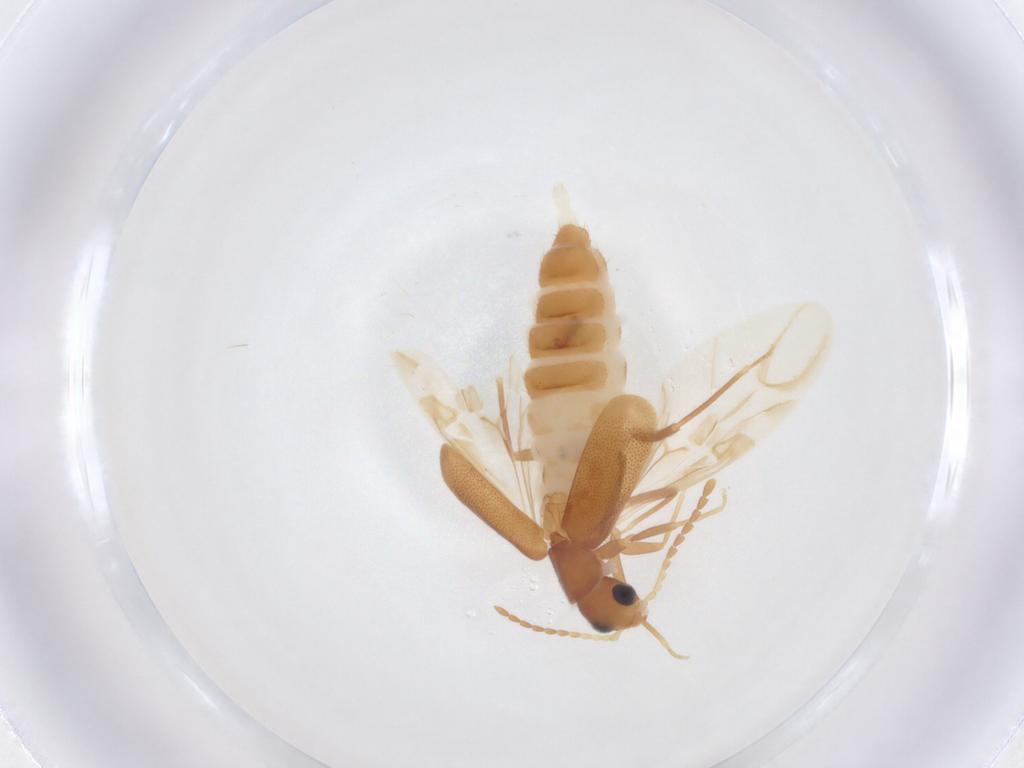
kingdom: Animalia
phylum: Arthropoda
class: Insecta
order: Coleoptera
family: Melyridae
